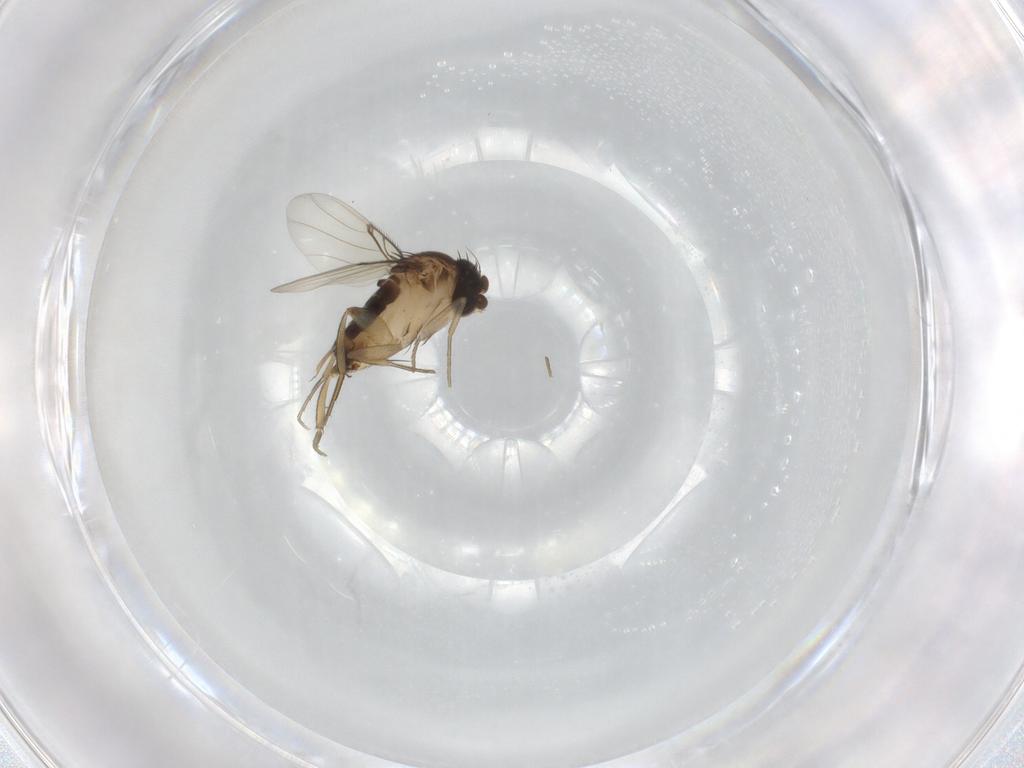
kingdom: Animalia
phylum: Arthropoda
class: Insecta
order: Diptera
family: Phoridae
